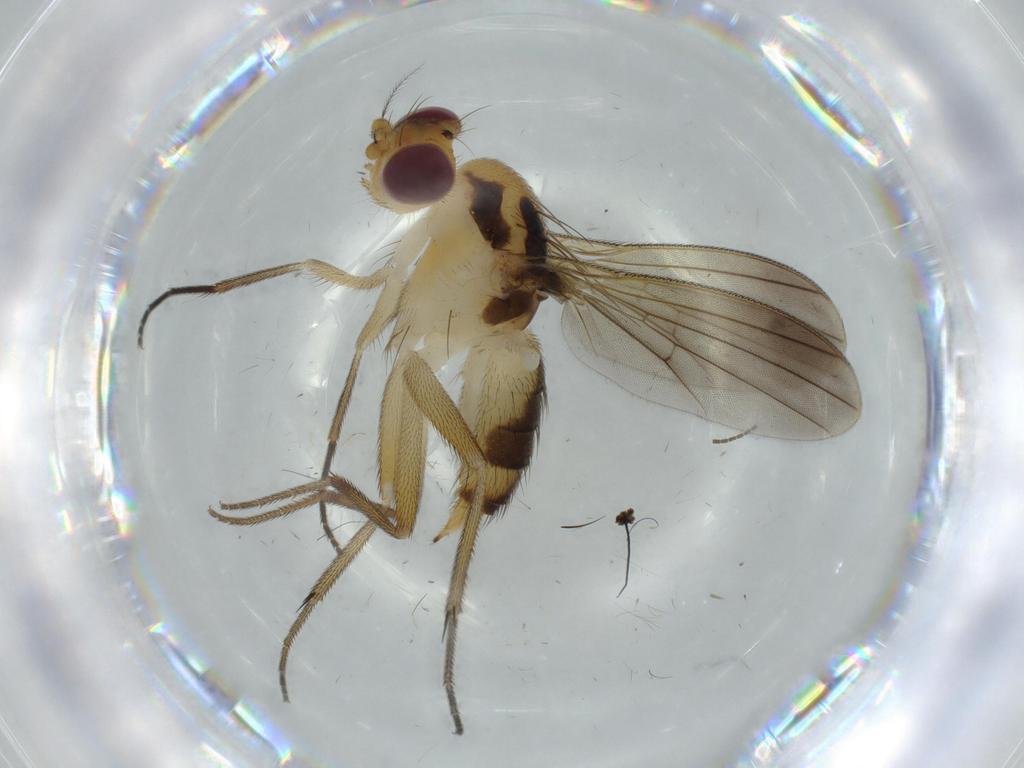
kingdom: Animalia
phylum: Arthropoda
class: Insecta
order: Diptera
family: Clusiidae
